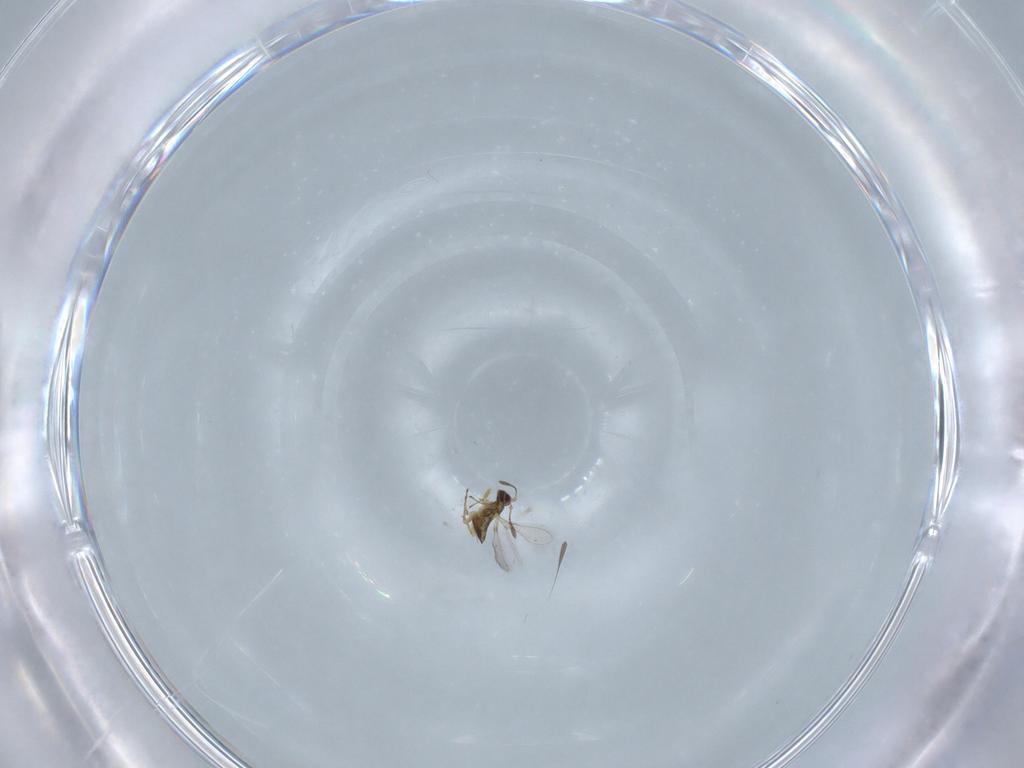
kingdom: Animalia
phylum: Arthropoda
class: Insecta
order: Hymenoptera
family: Mymaridae
